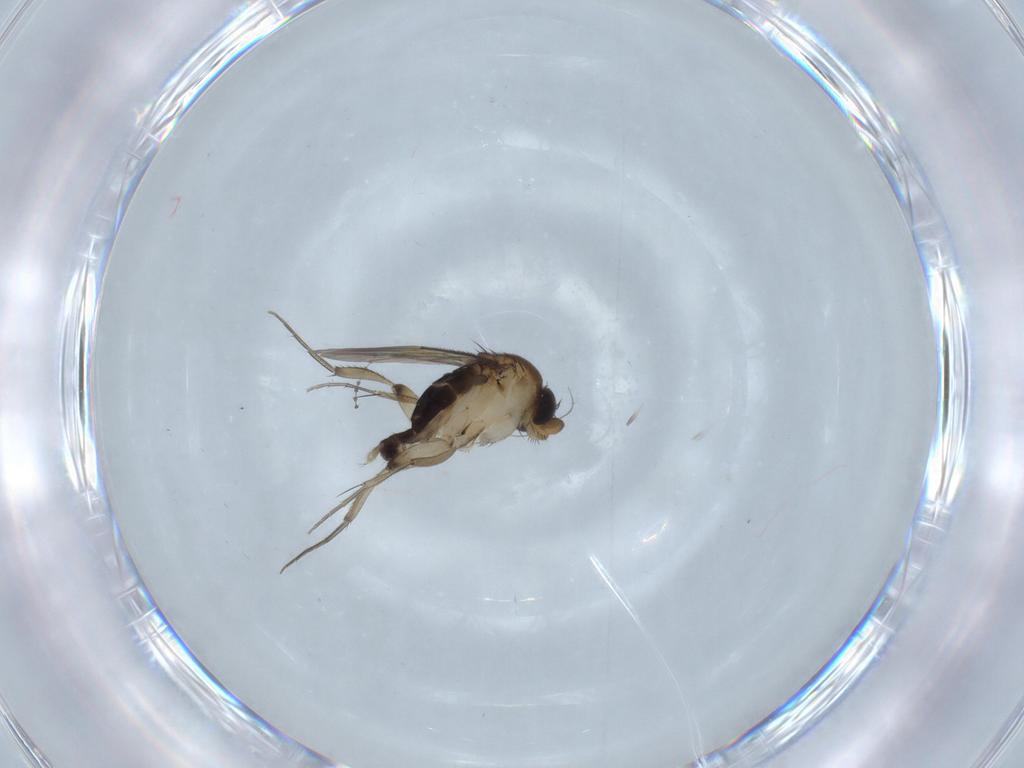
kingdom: Animalia
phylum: Arthropoda
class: Insecta
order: Diptera
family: Phoridae
